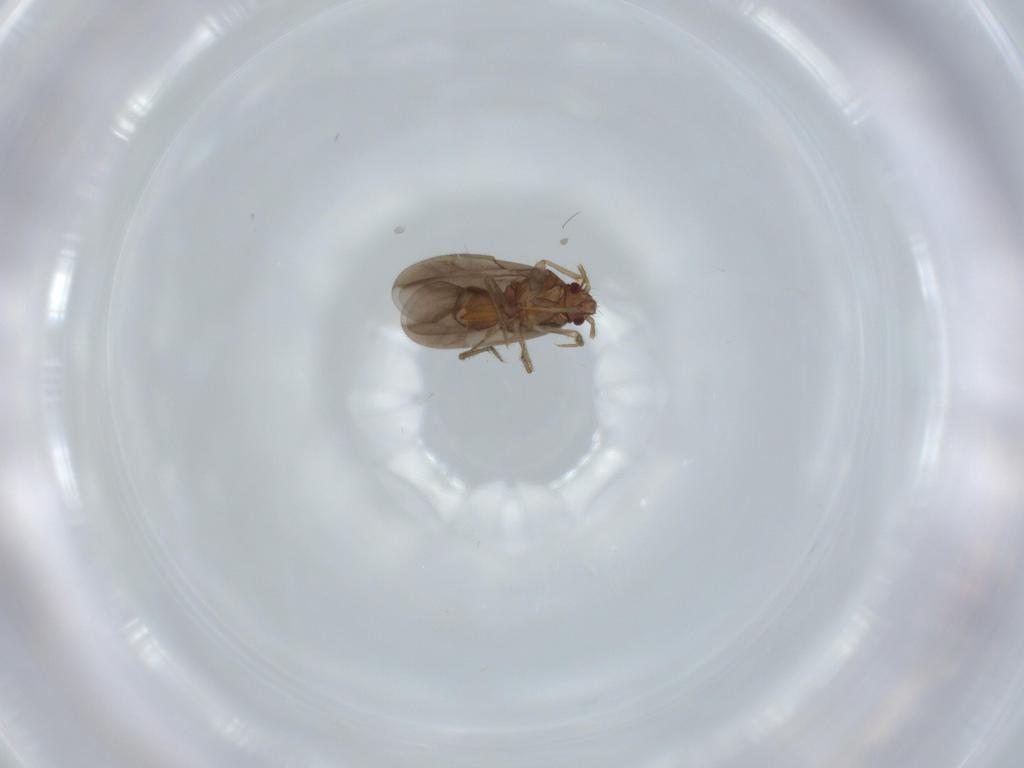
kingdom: Animalia
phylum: Arthropoda
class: Insecta
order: Hemiptera
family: Ceratocombidae
